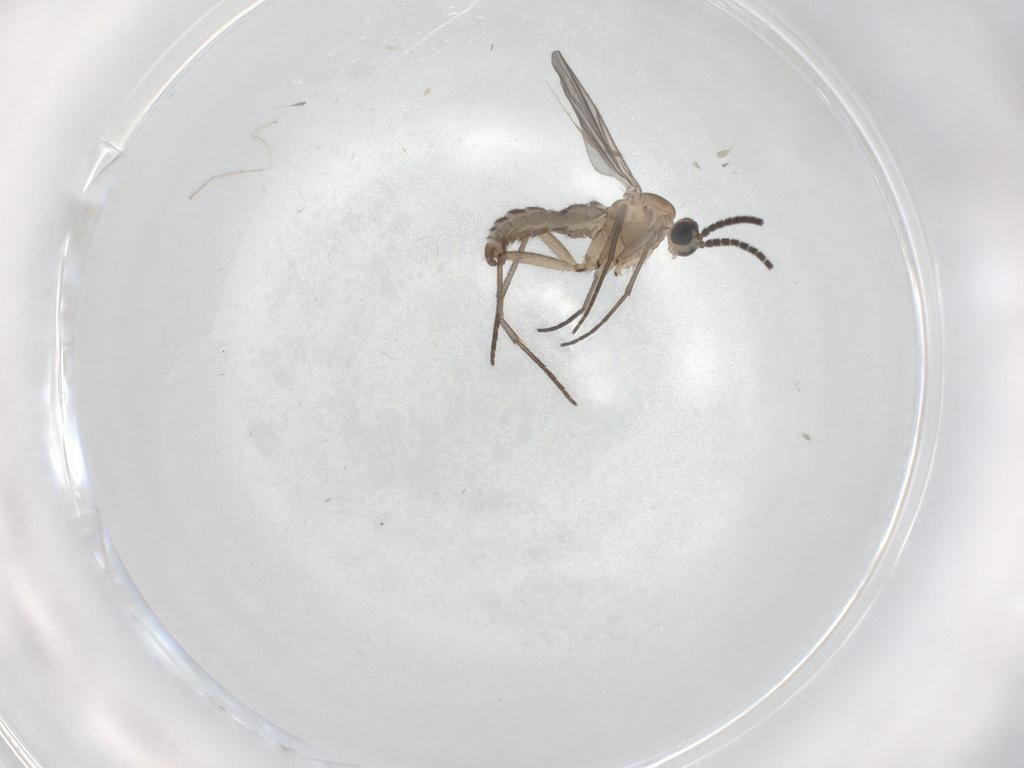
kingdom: Animalia
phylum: Arthropoda
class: Insecta
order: Diptera
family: Sciaridae
